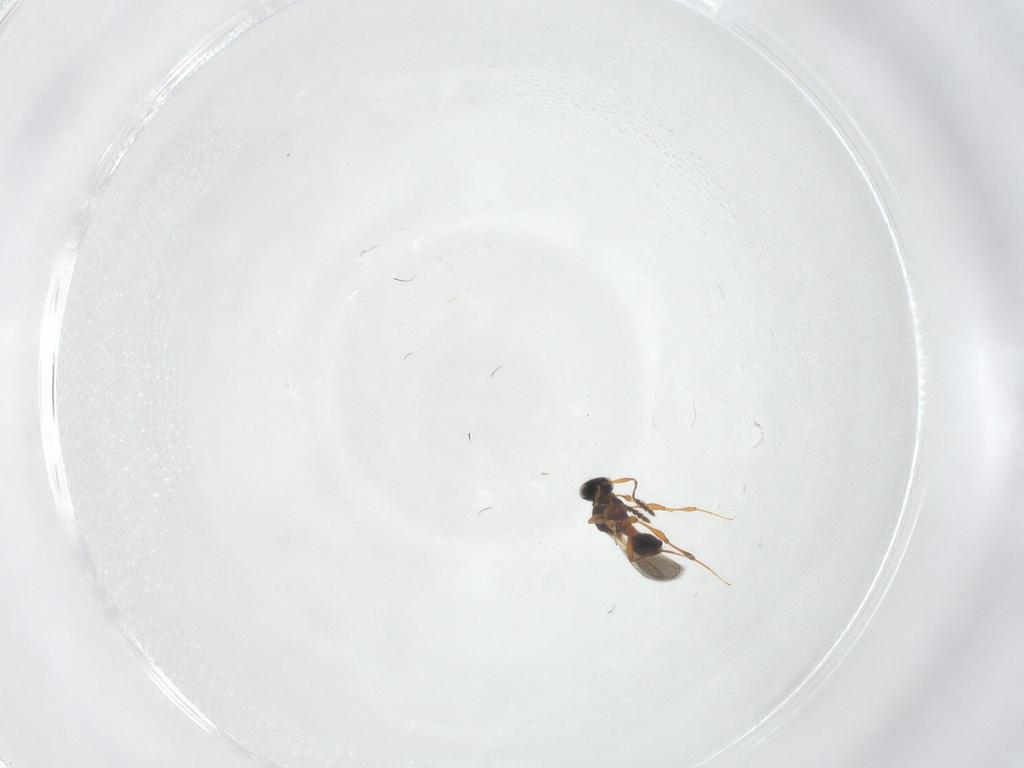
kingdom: Animalia
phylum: Arthropoda
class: Insecta
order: Hymenoptera
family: Platygastridae
